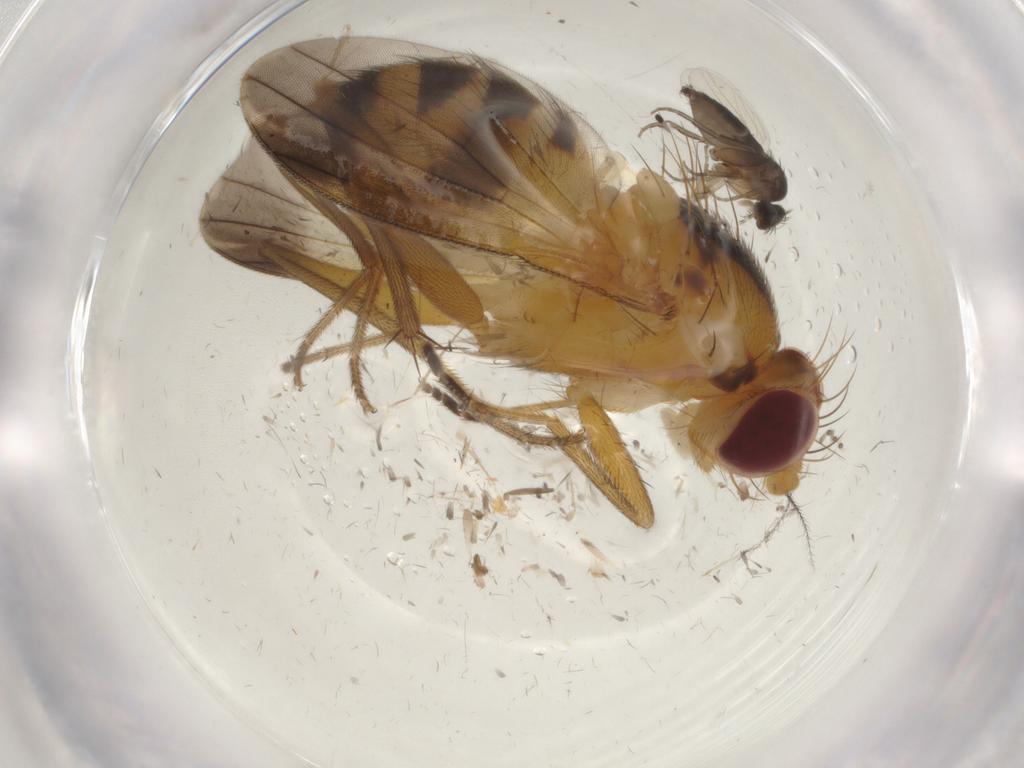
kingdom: Animalia
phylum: Arthropoda
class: Insecta
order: Diptera
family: Clusiidae
